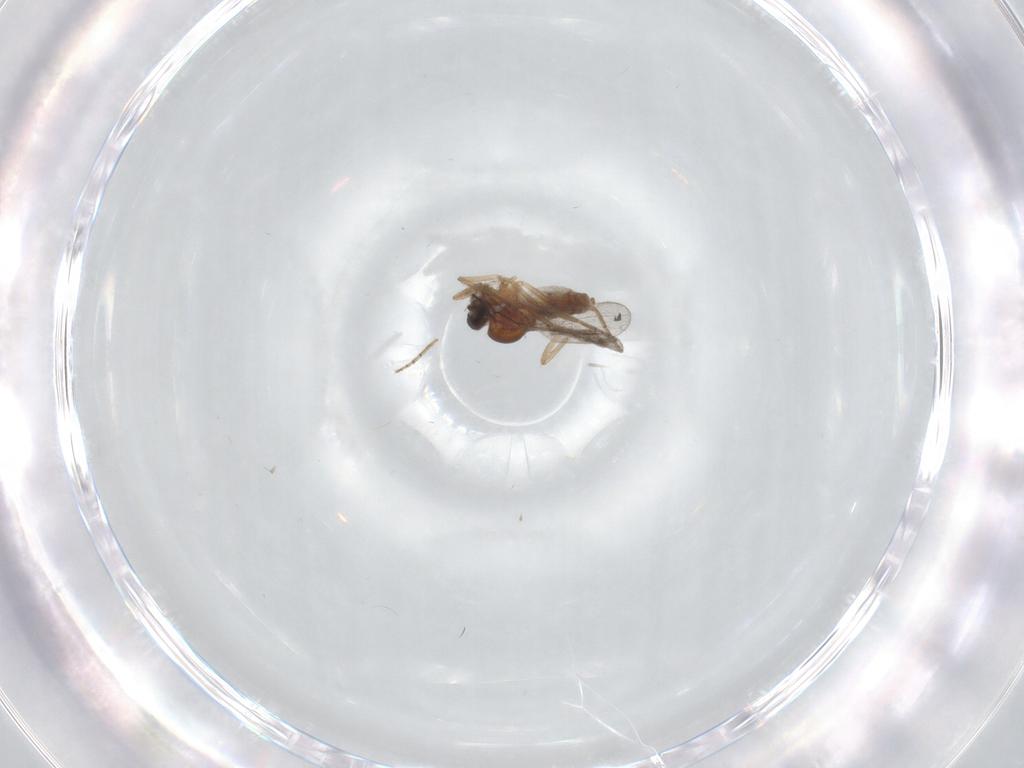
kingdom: Animalia
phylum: Arthropoda
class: Insecta
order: Diptera
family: Ceratopogonidae
